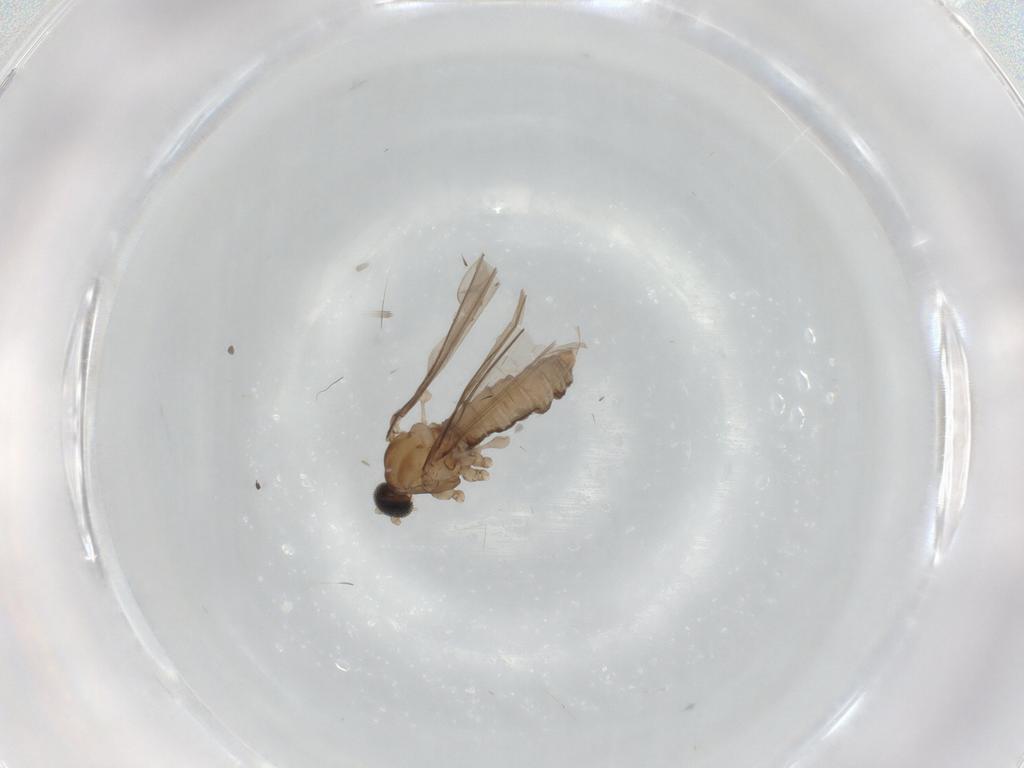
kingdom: Animalia
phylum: Arthropoda
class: Insecta
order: Diptera
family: Cecidomyiidae
